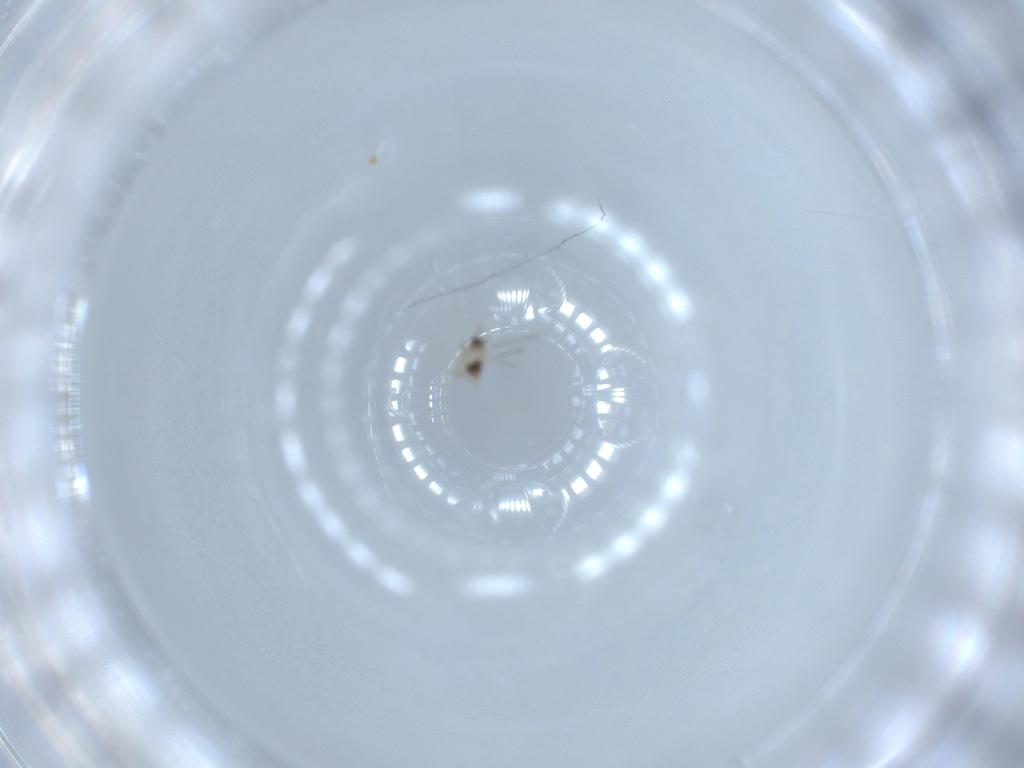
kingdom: Animalia
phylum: Arthropoda
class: Insecta
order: Hymenoptera
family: Mymaridae
